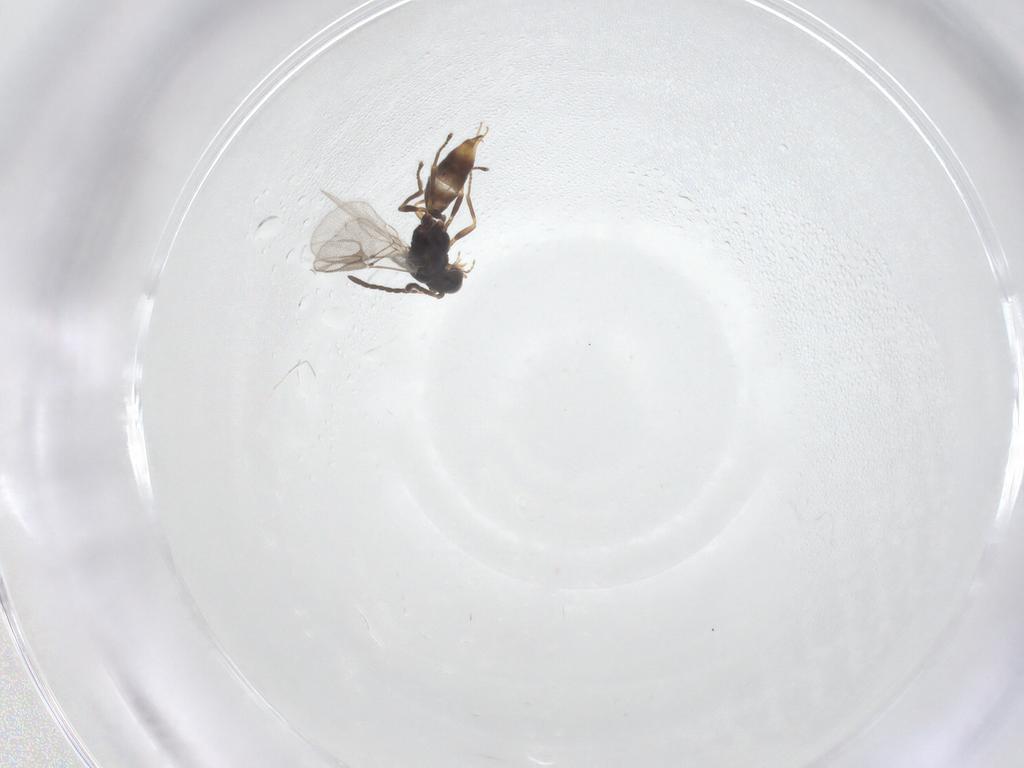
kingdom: Animalia
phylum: Arthropoda
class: Insecta
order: Hymenoptera
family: Braconidae
